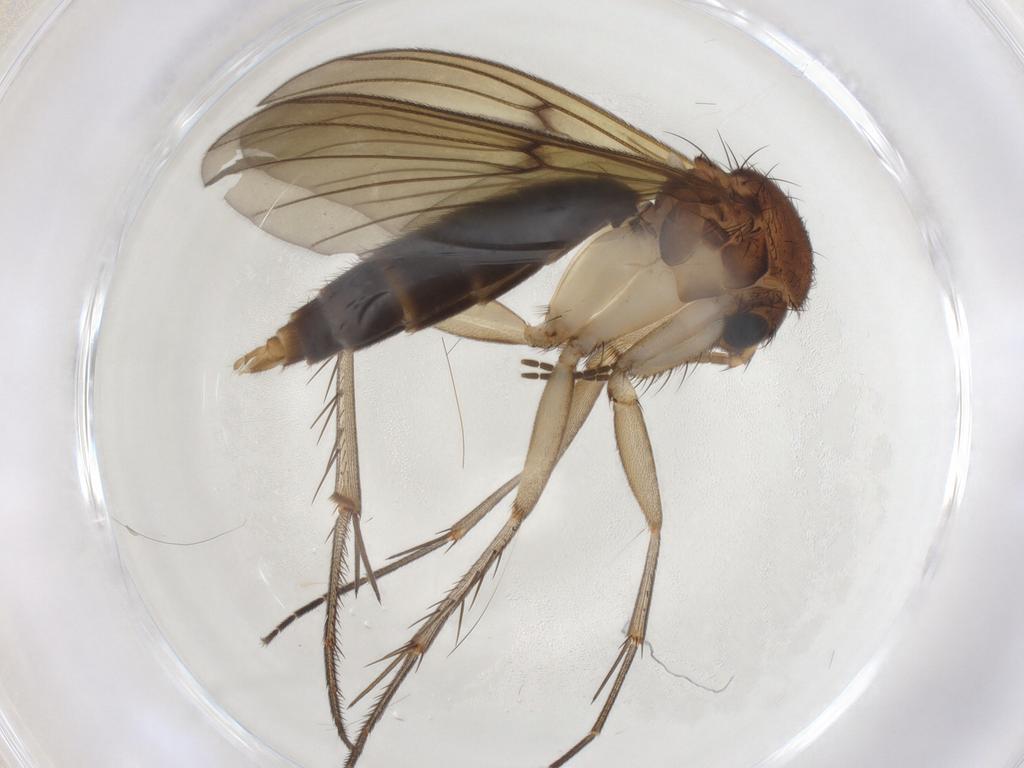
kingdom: Animalia
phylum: Arthropoda
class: Insecta
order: Diptera
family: Mycetophilidae
